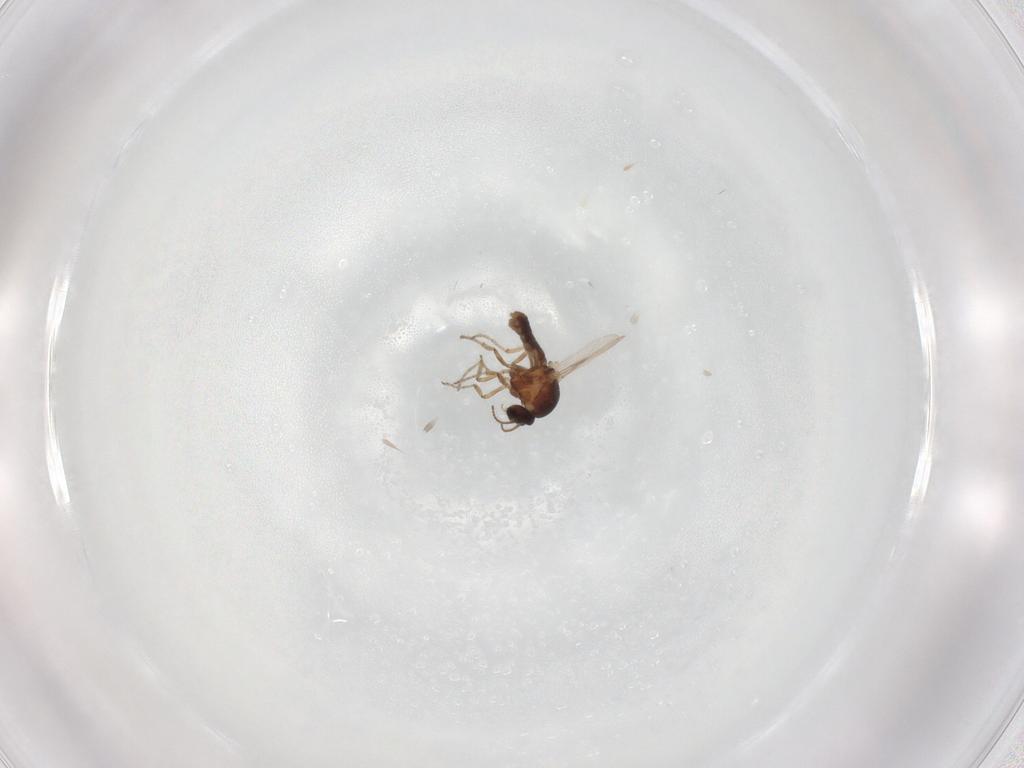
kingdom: Animalia
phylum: Arthropoda
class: Insecta
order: Diptera
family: Ceratopogonidae
